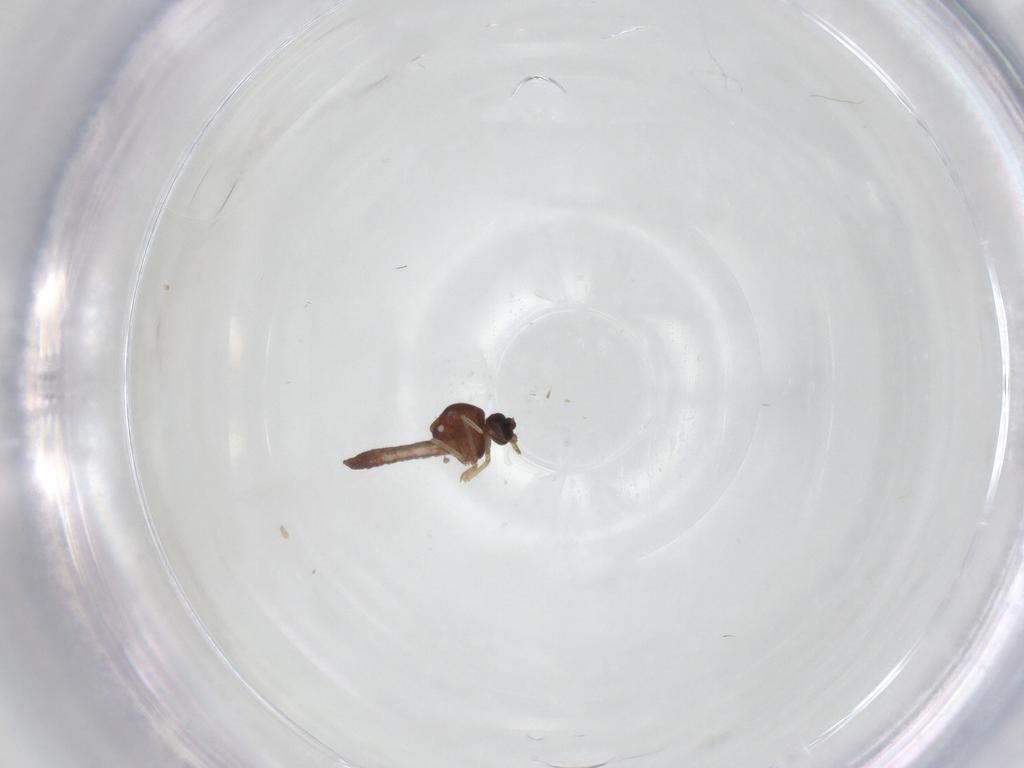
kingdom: Animalia
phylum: Arthropoda
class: Insecta
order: Diptera
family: Ceratopogonidae
